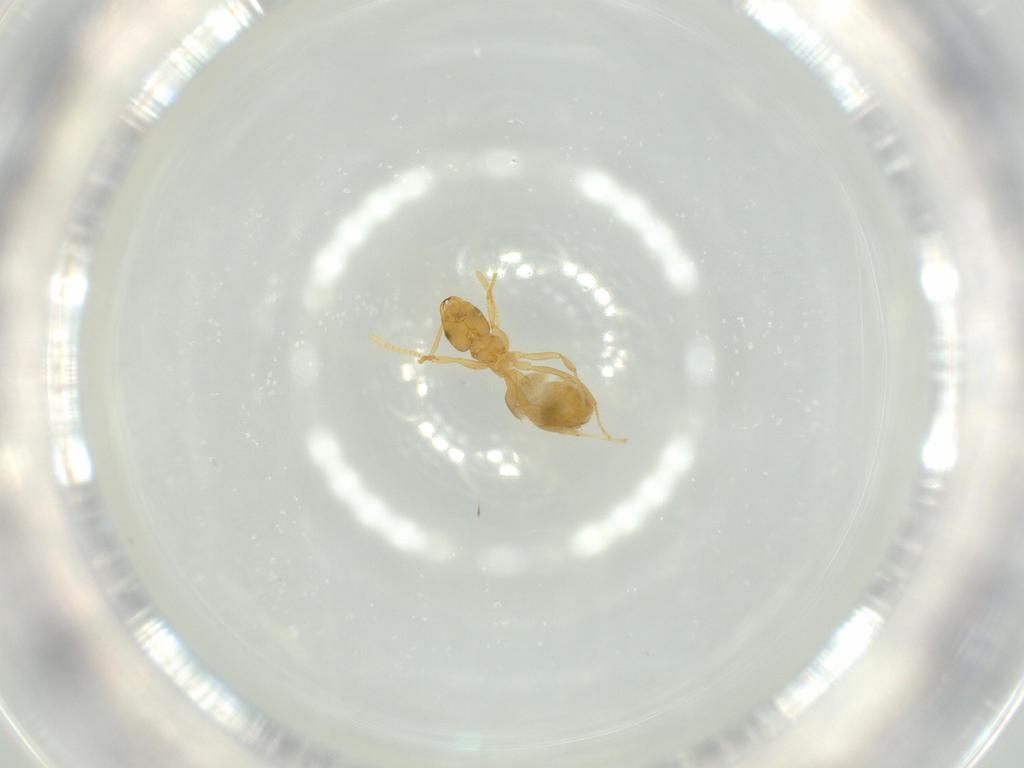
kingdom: Animalia
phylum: Arthropoda
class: Insecta
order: Hymenoptera
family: Formicidae
